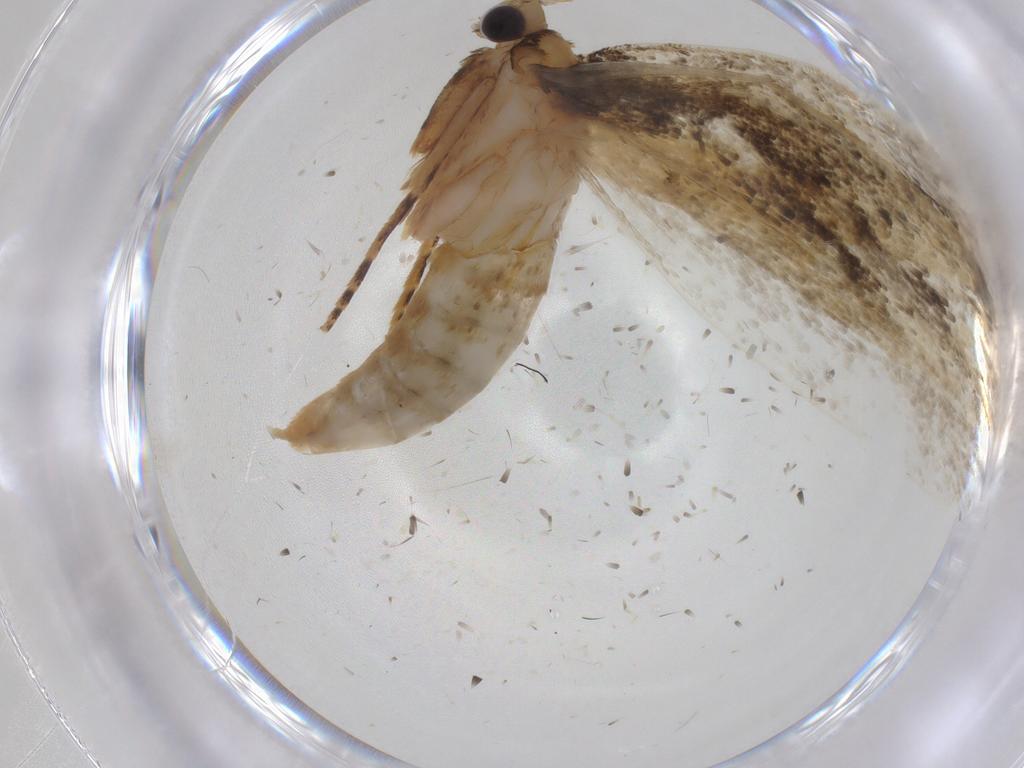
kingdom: Animalia
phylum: Arthropoda
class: Insecta
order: Lepidoptera
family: Tineidae
